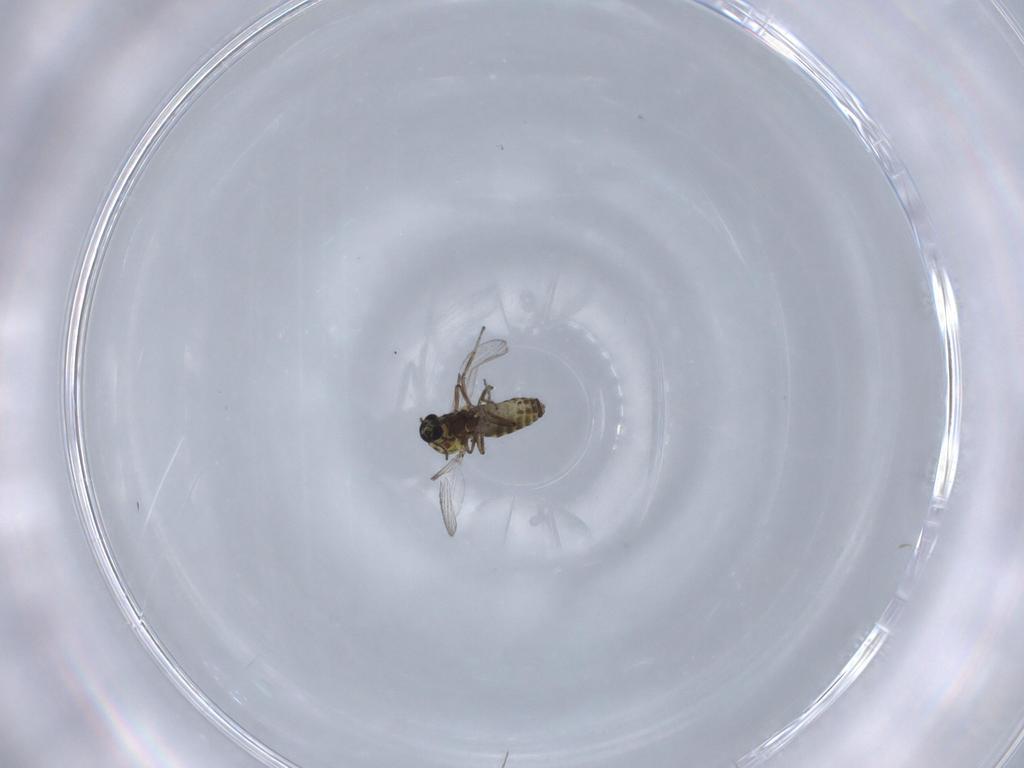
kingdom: Animalia
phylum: Arthropoda
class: Insecta
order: Diptera
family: Ceratopogonidae
